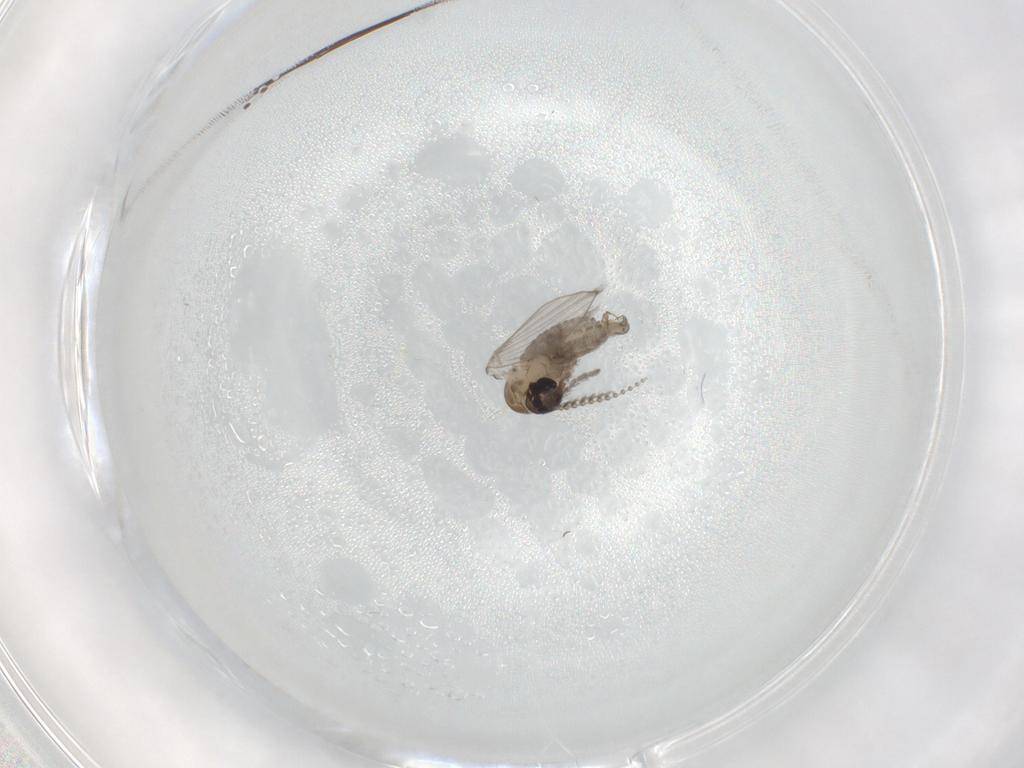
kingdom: Animalia
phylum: Arthropoda
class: Insecta
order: Diptera
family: Psychodidae
